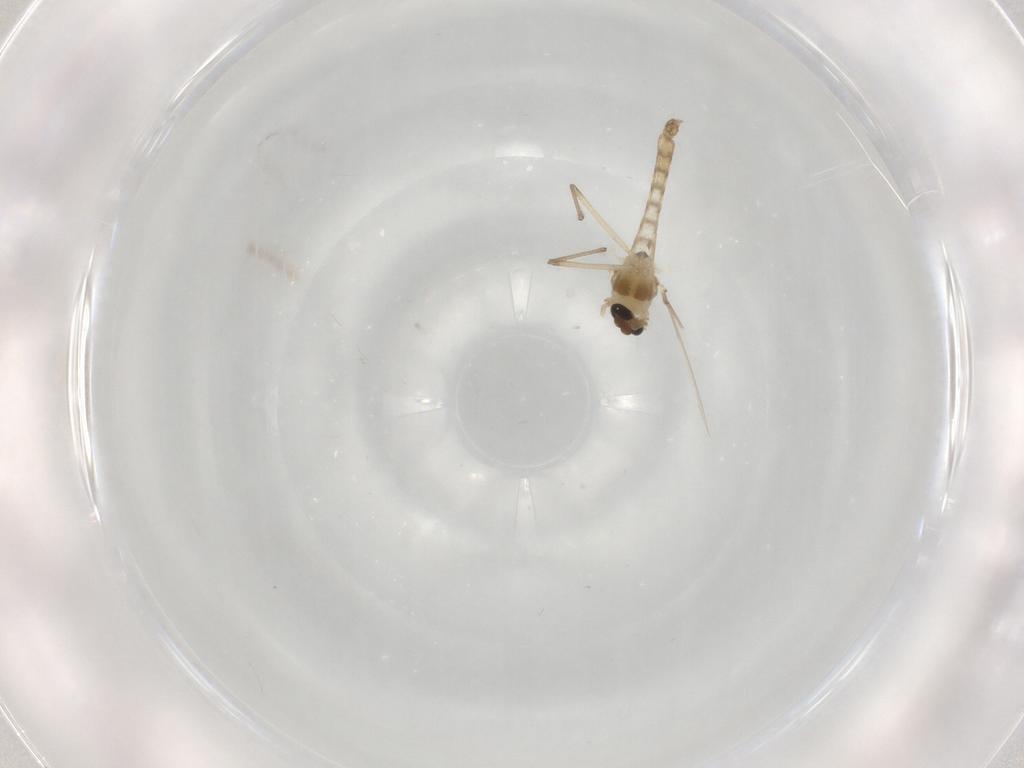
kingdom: Animalia
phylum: Arthropoda
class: Insecta
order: Diptera
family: Chironomidae
